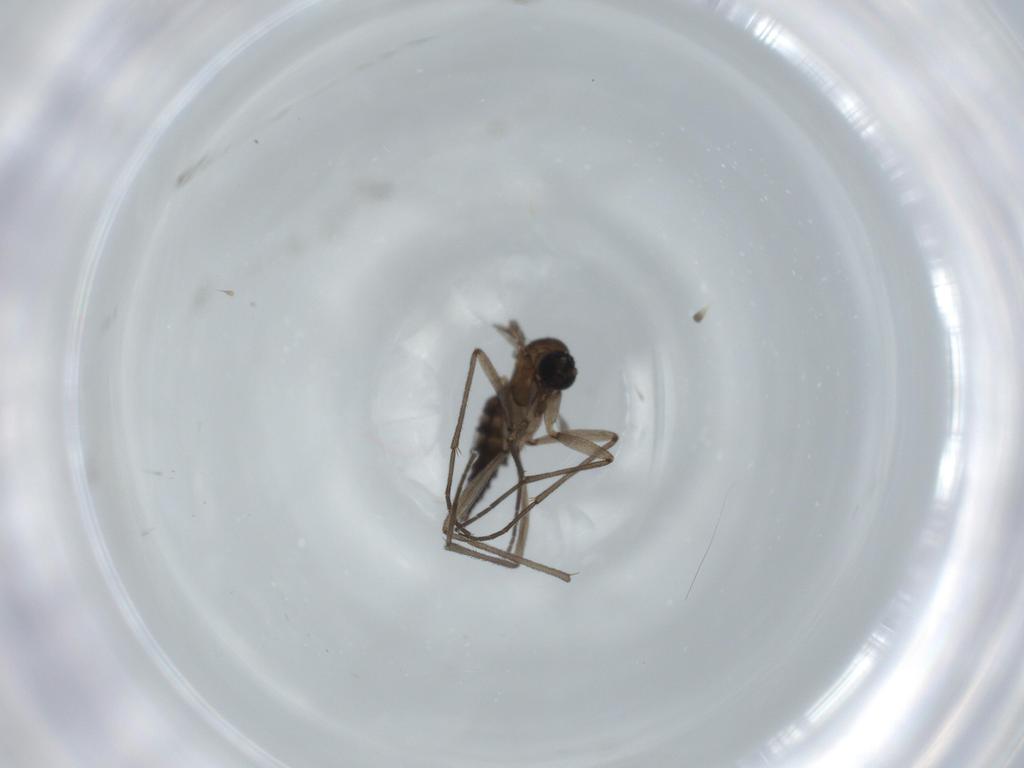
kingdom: Animalia
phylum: Arthropoda
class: Insecta
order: Diptera
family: Sciaridae
